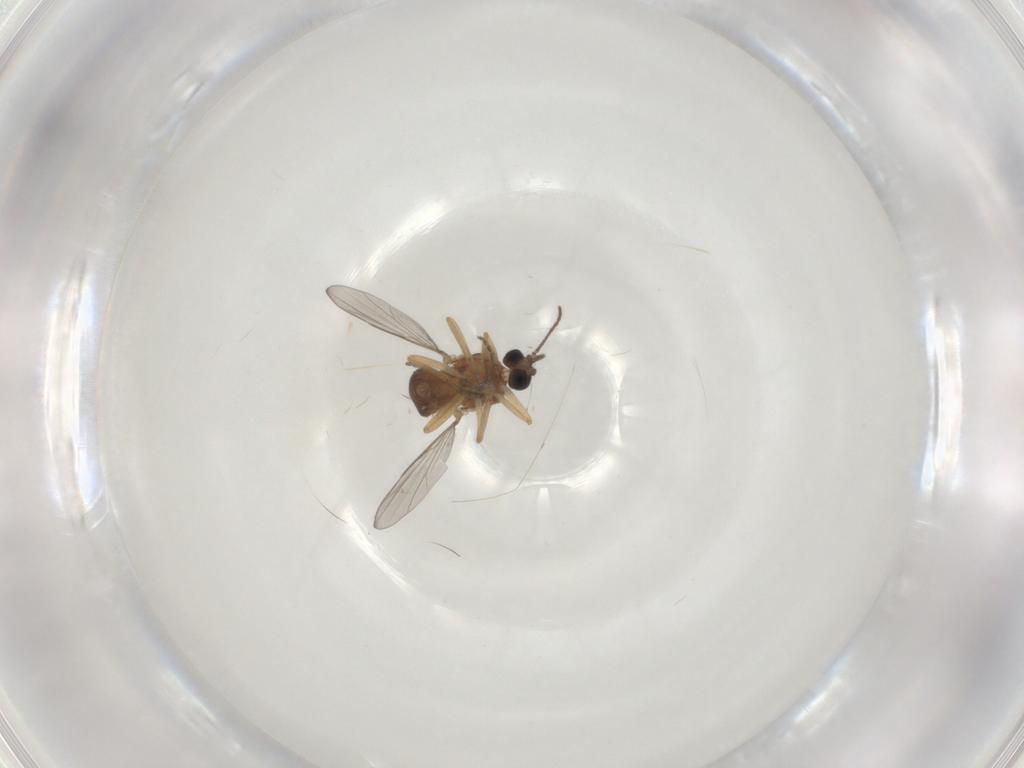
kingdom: Animalia
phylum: Arthropoda
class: Insecta
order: Diptera
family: Ceratopogonidae
